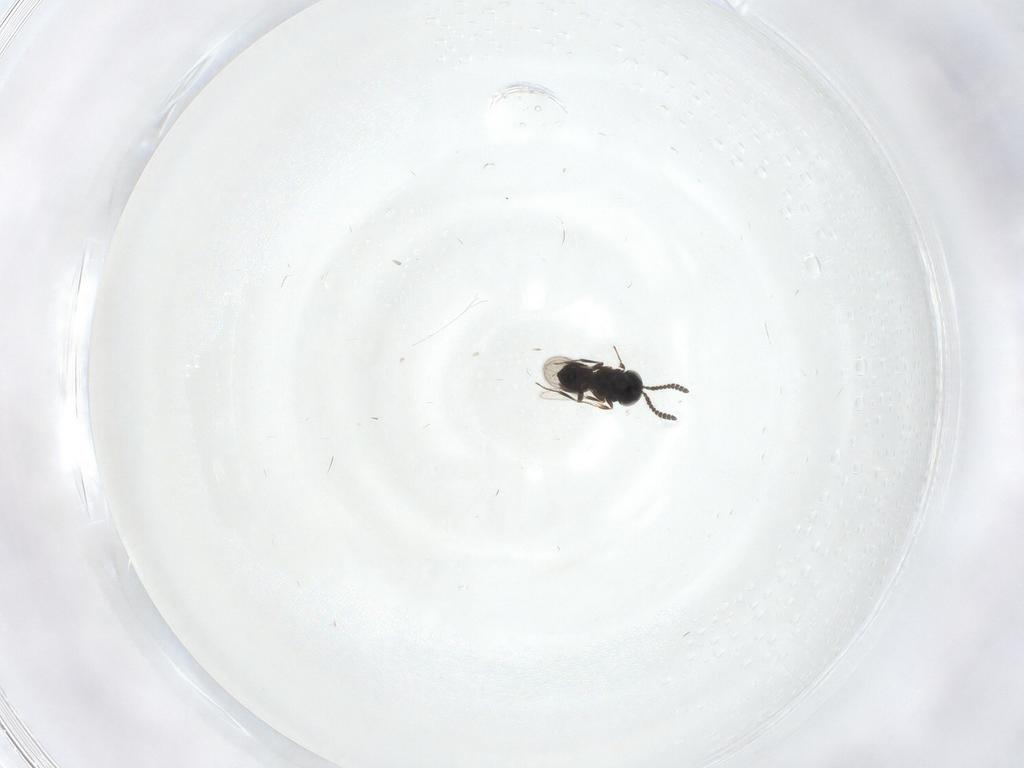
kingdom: Animalia
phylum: Arthropoda
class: Insecta
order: Hymenoptera
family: Scelionidae
